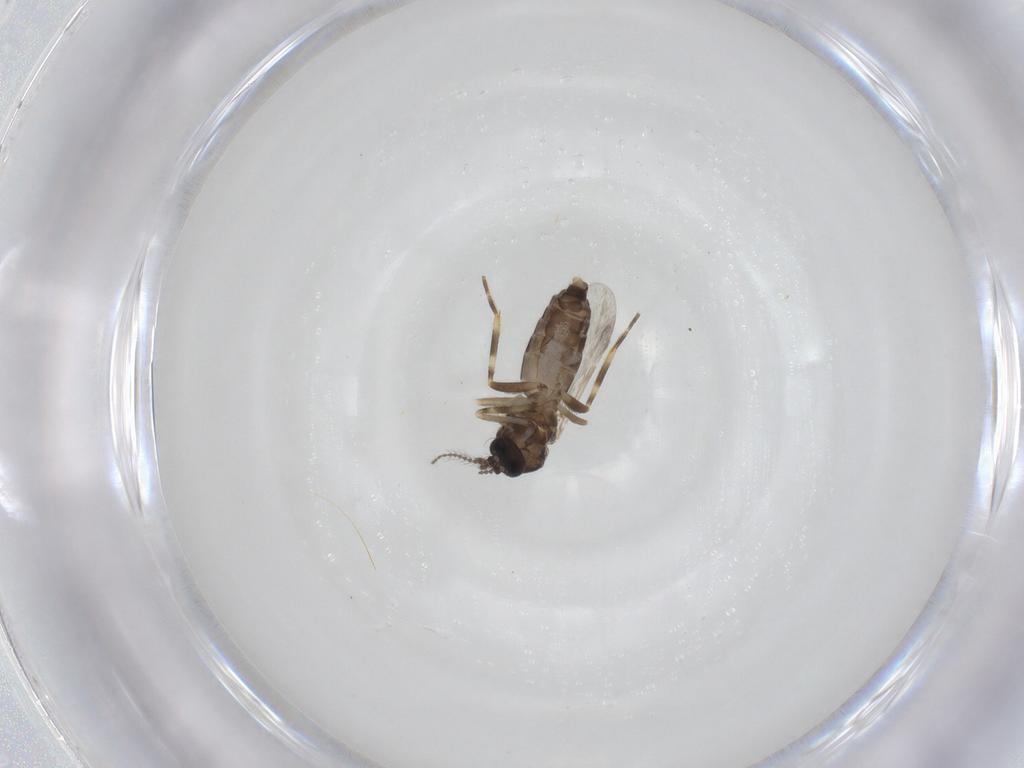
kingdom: Animalia
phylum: Arthropoda
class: Insecta
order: Diptera
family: Ceratopogonidae
